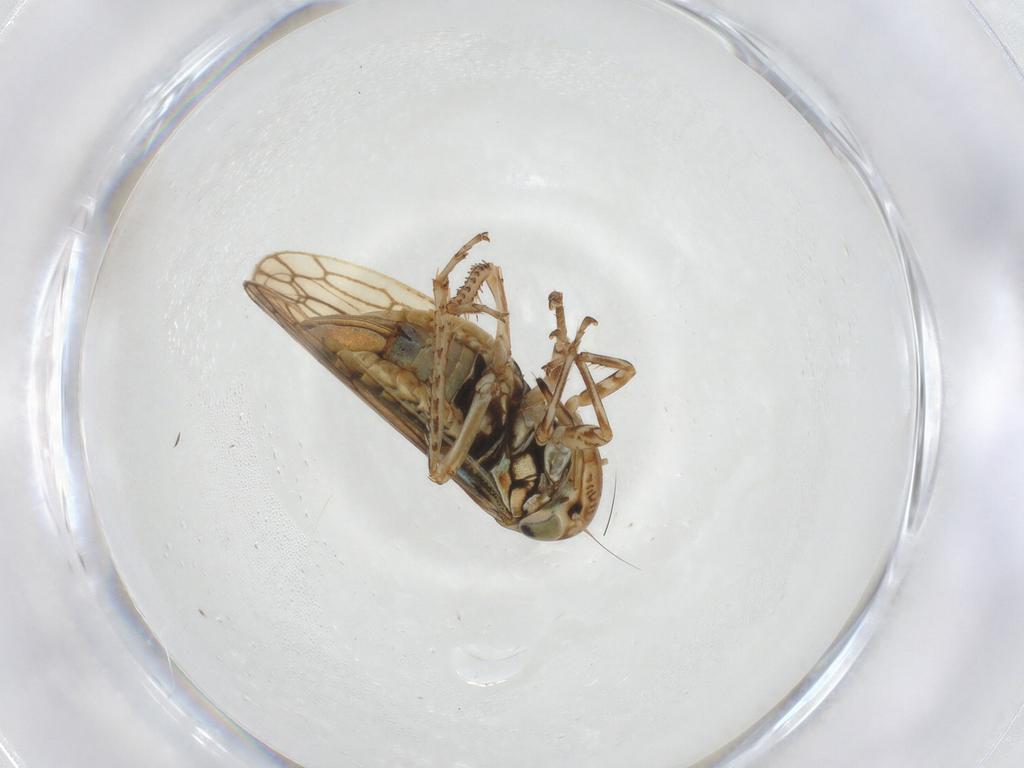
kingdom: Animalia
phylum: Arthropoda
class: Insecta
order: Hemiptera
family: Cicadellidae
